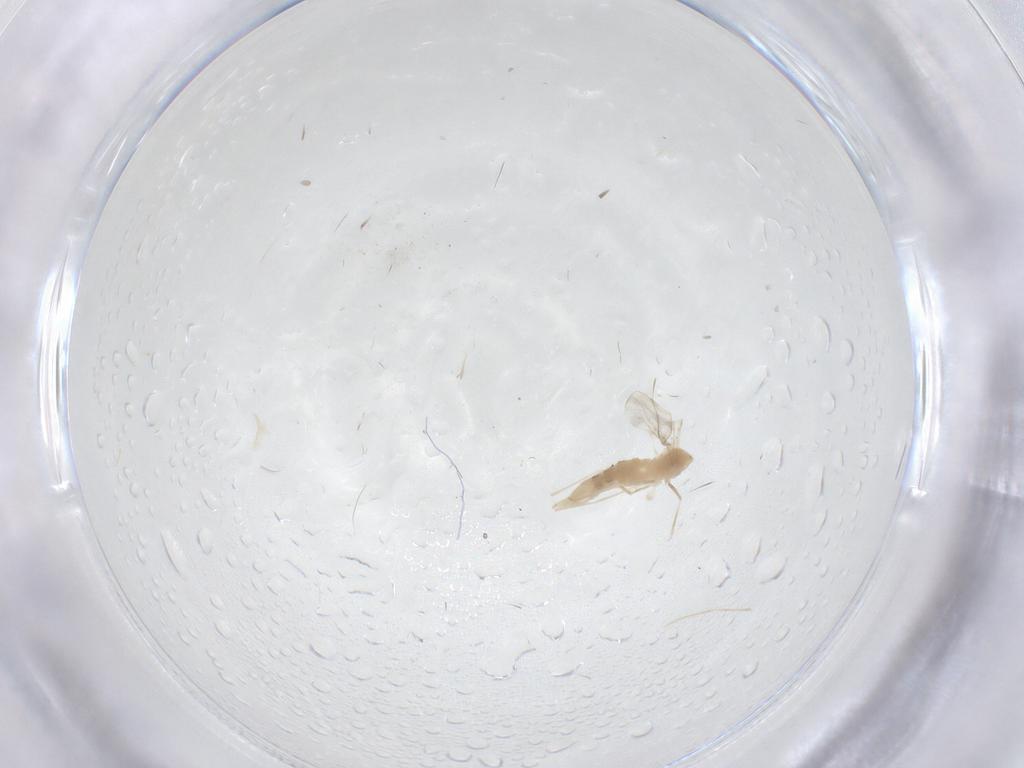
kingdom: Animalia
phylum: Arthropoda
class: Insecta
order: Diptera
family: Cecidomyiidae
